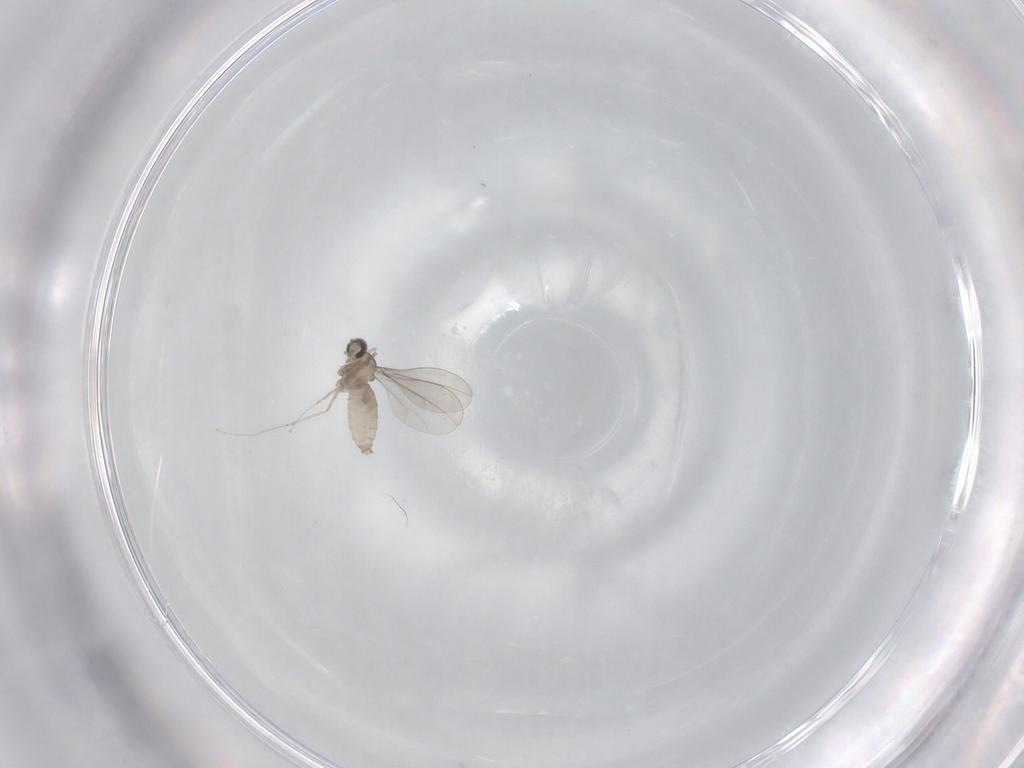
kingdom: Animalia
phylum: Arthropoda
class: Insecta
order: Diptera
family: Cecidomyiidae
